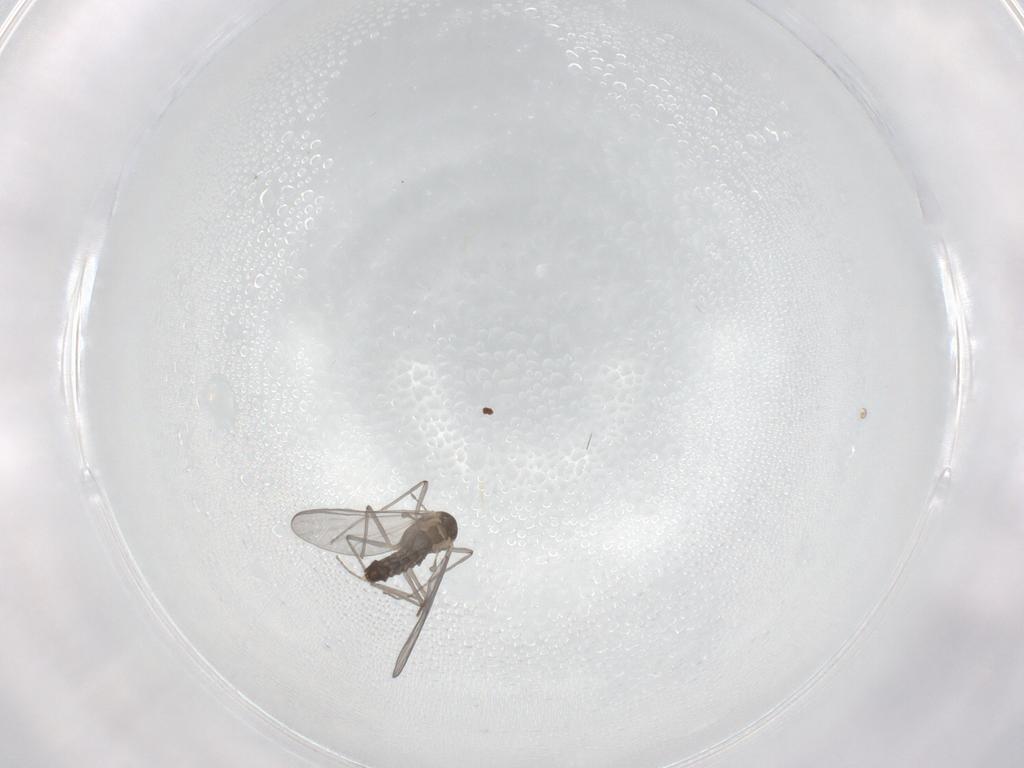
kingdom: Animalia
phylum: Arthropoda
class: Insecta
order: Diptera
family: Chironomidae
